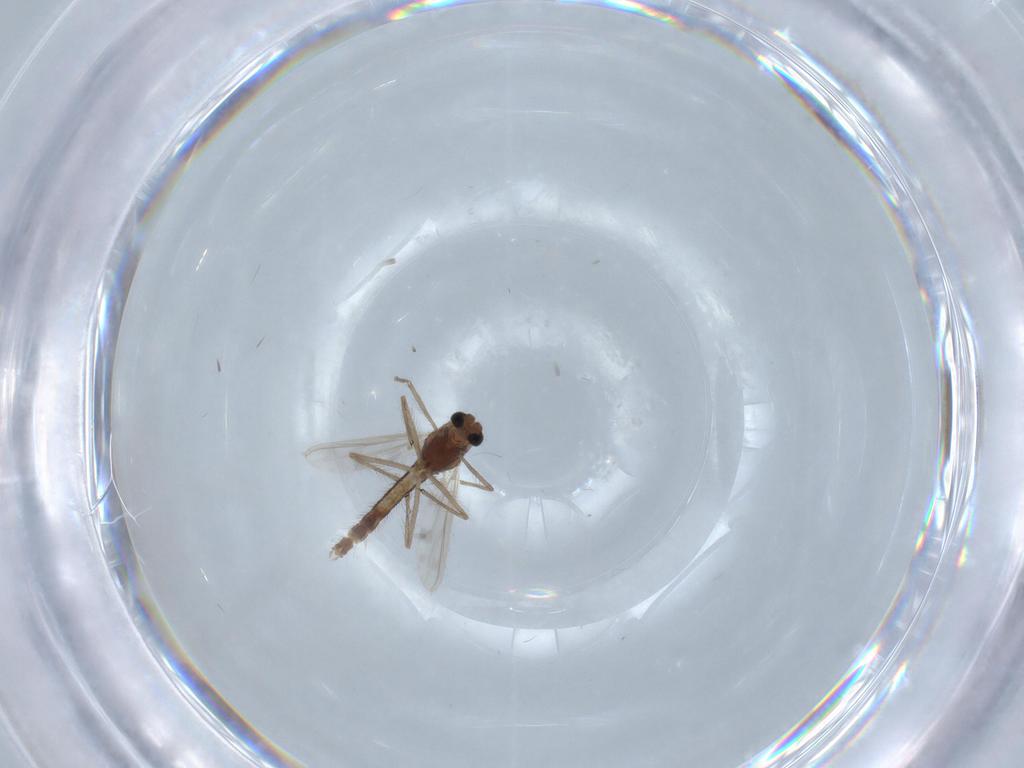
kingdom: Animalia
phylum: Arthropoda
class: Insecta
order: Diptera
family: Chironomidae
